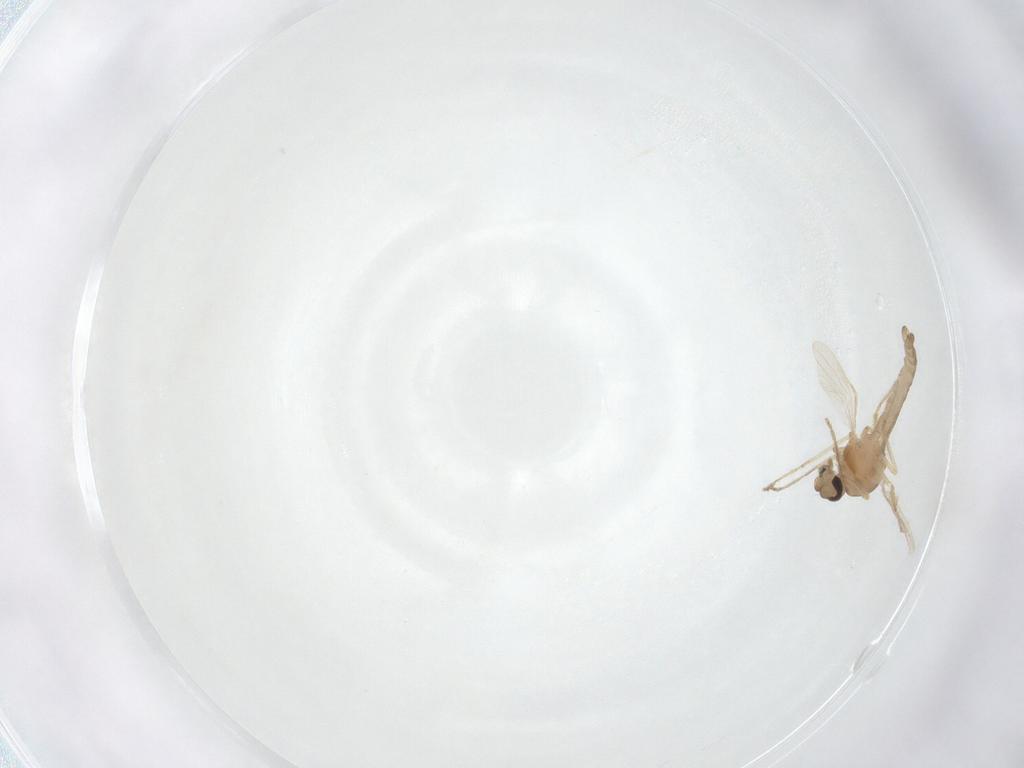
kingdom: Animalia
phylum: Arthropoda
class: Insecta
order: Diptera
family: Ceratopogonidae
